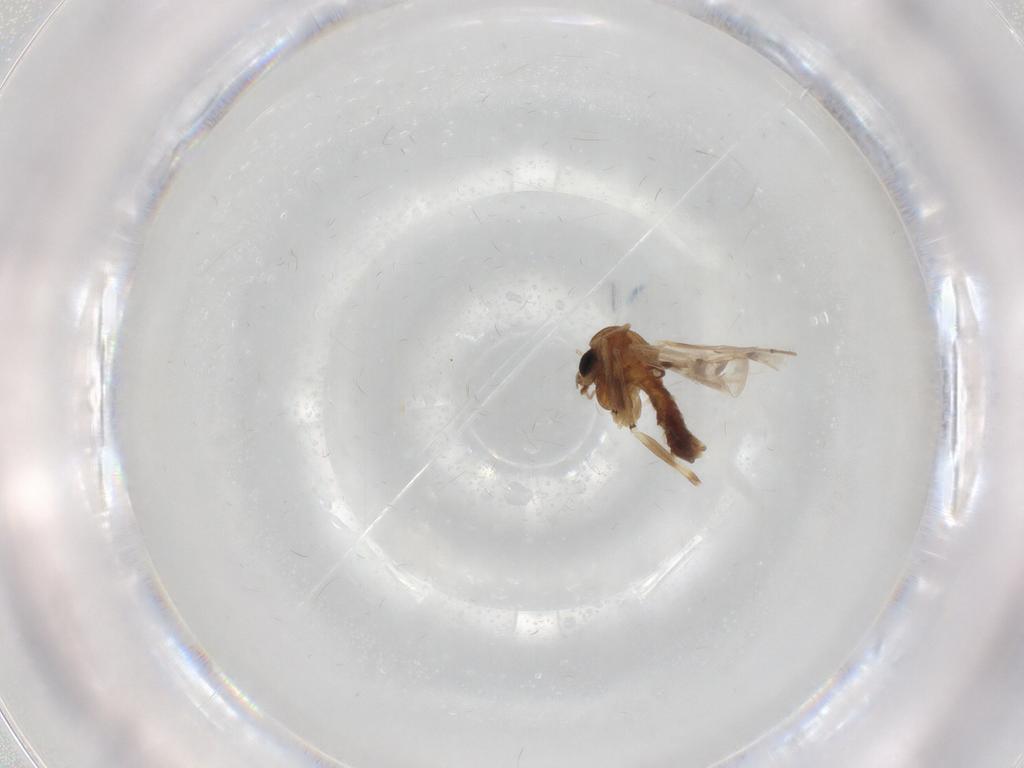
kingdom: Animalia
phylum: Arthropoda
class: Insecta
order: Diptera
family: Chironomidae
